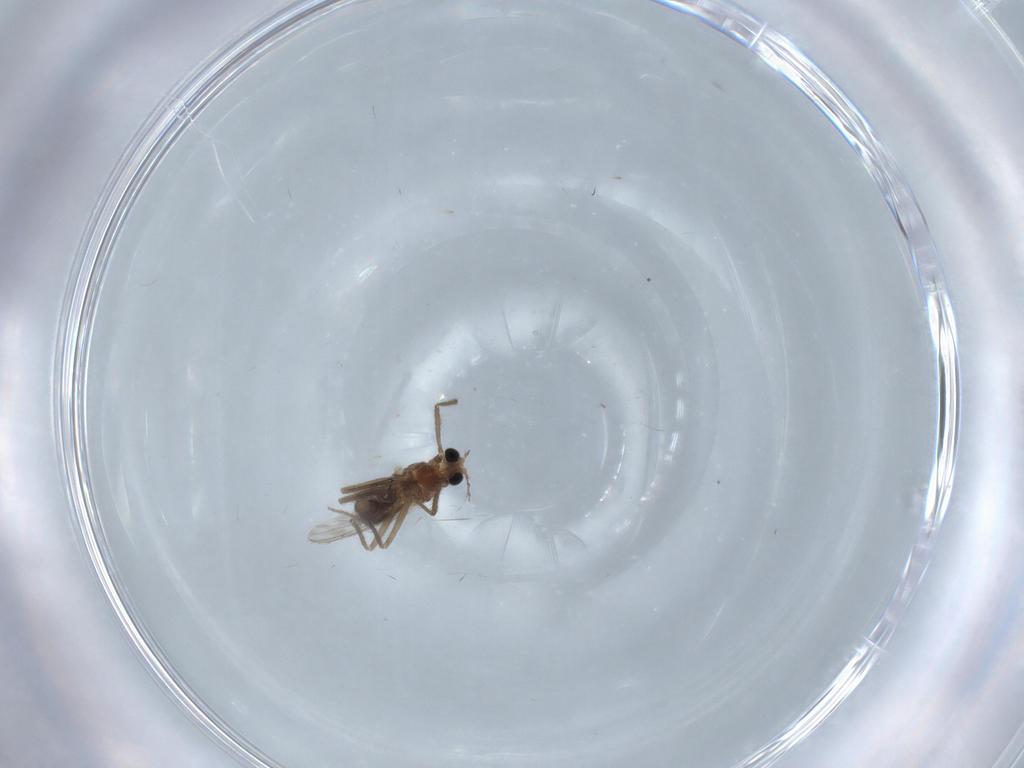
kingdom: Animalia
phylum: Arthropoda
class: Insecta
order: Diptera
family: Chironomidae
